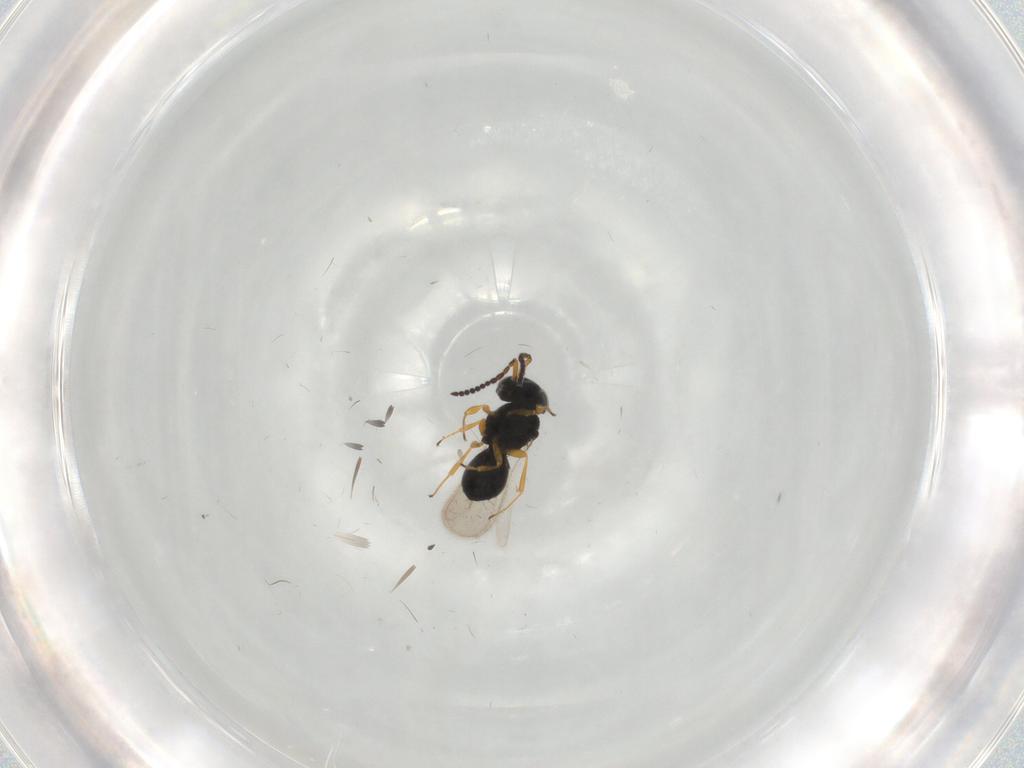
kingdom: Animalia
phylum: Arthropoda
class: Insecta
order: Hymenoptera
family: Scelionidae
